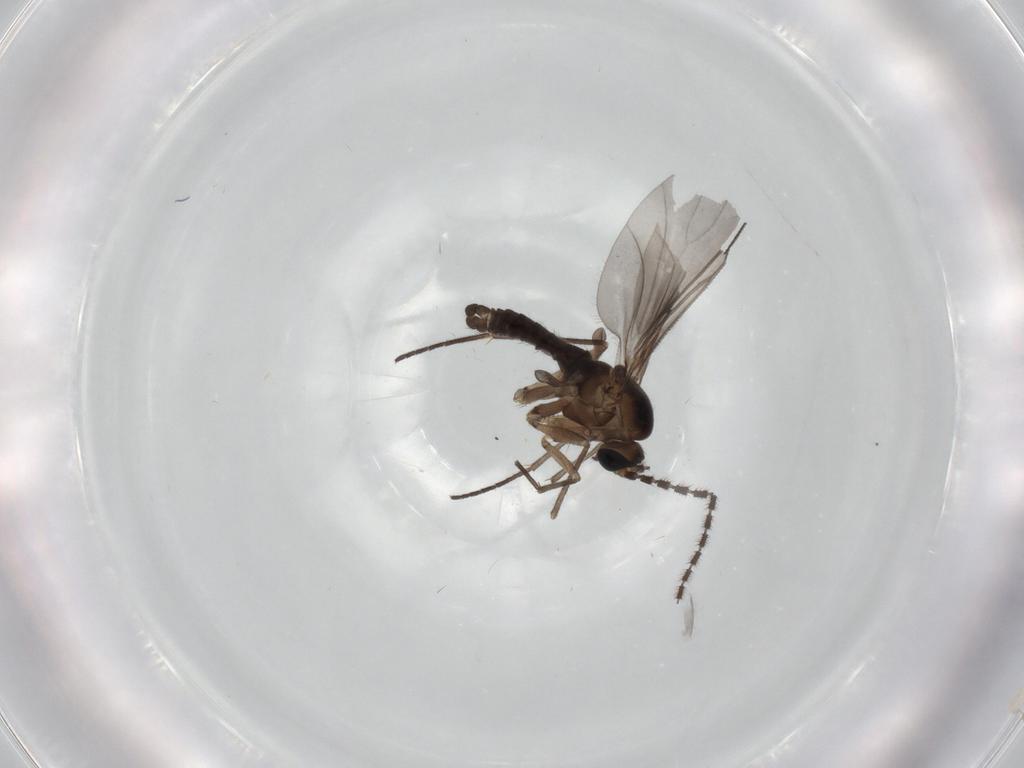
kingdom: Animalia
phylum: Arthropoda
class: Insecta
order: Diptera
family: Sciaridae
